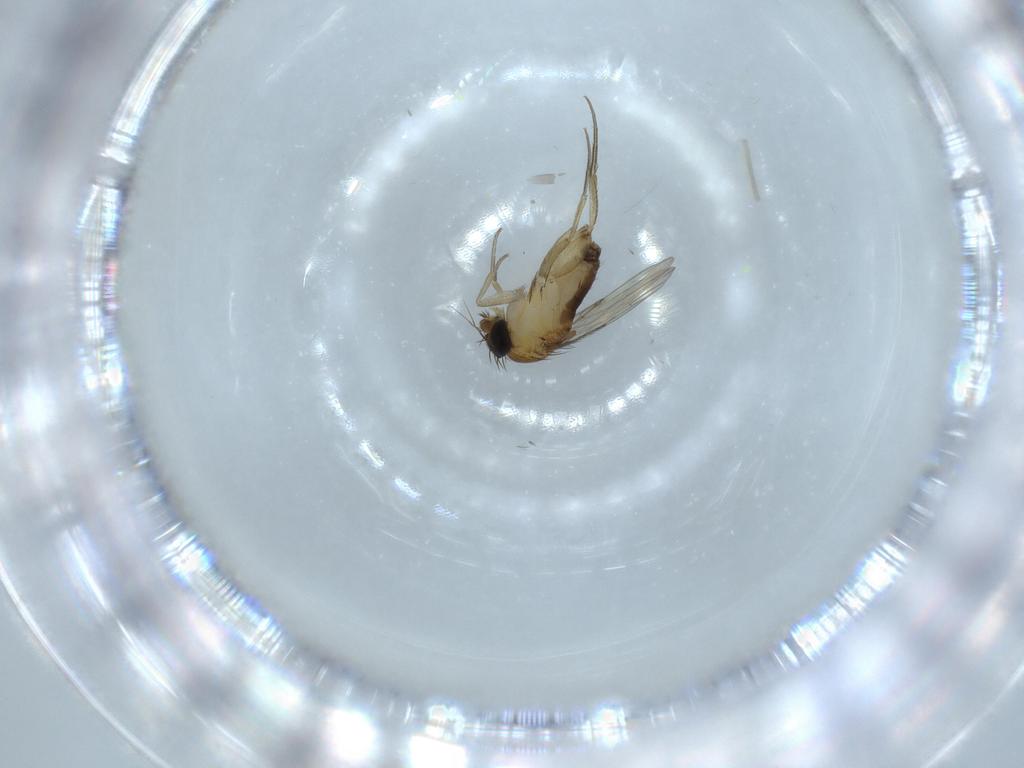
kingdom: Animalia
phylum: Arthropoda
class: Insecta
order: Diptera
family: Phoridae
